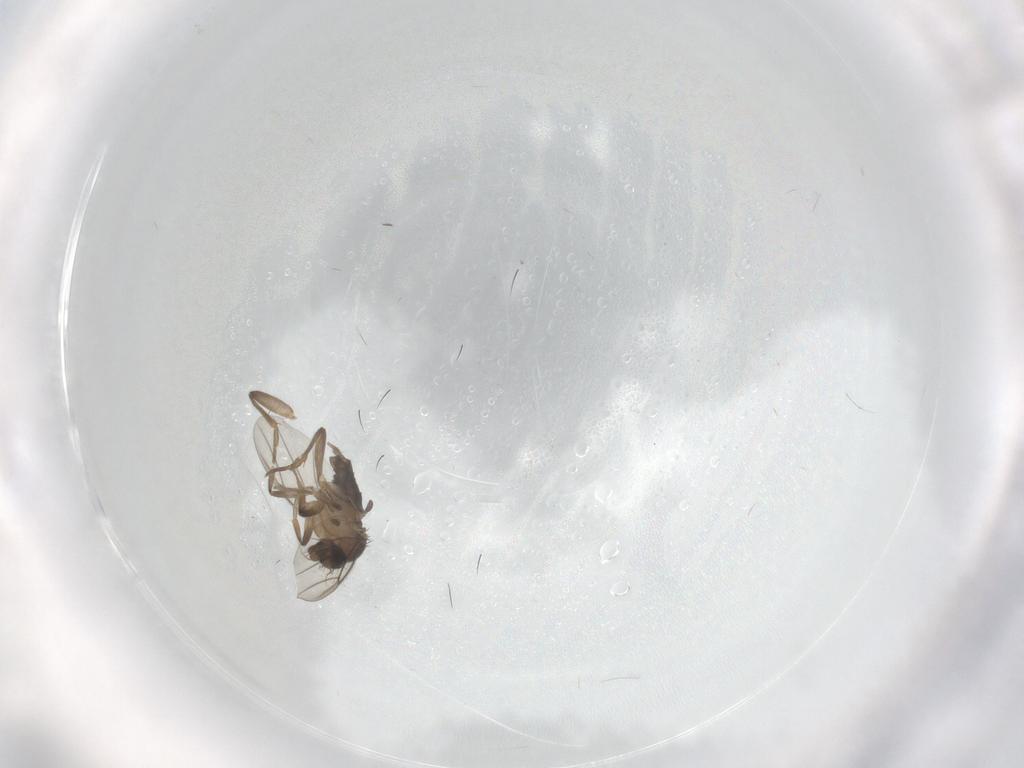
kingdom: Animalia
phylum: Arthropoda
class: Insecta
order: Diptera
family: Phoridae
